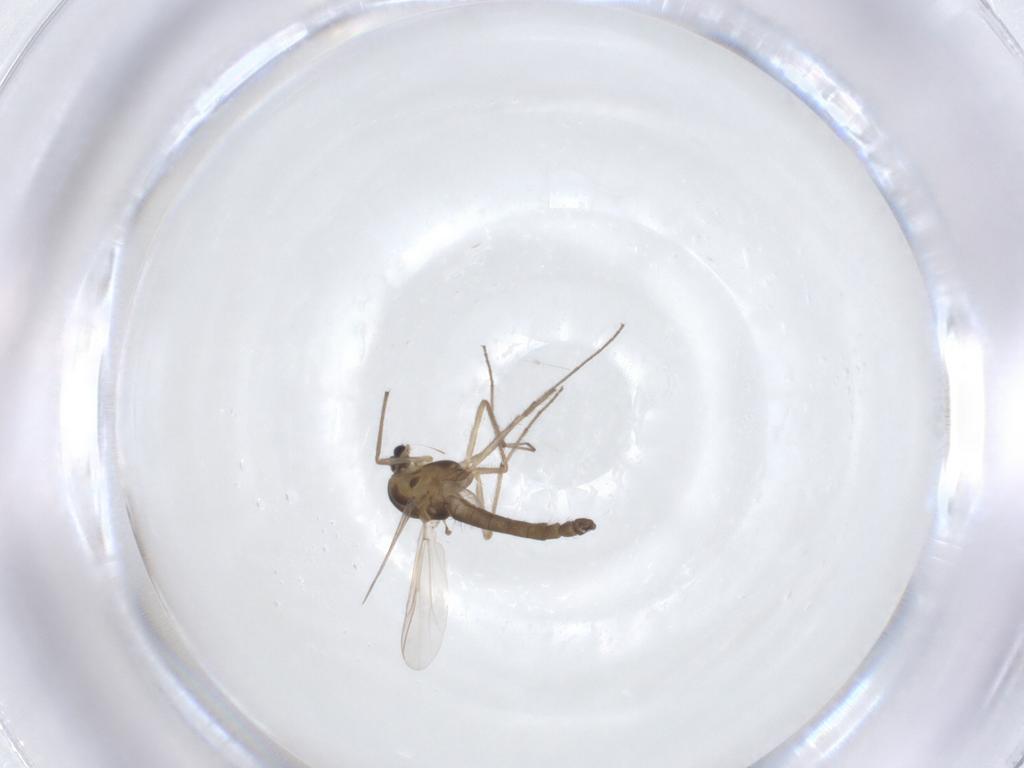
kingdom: Animalia
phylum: Arthropoda
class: Insecta
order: Diptera
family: Chironomidae
